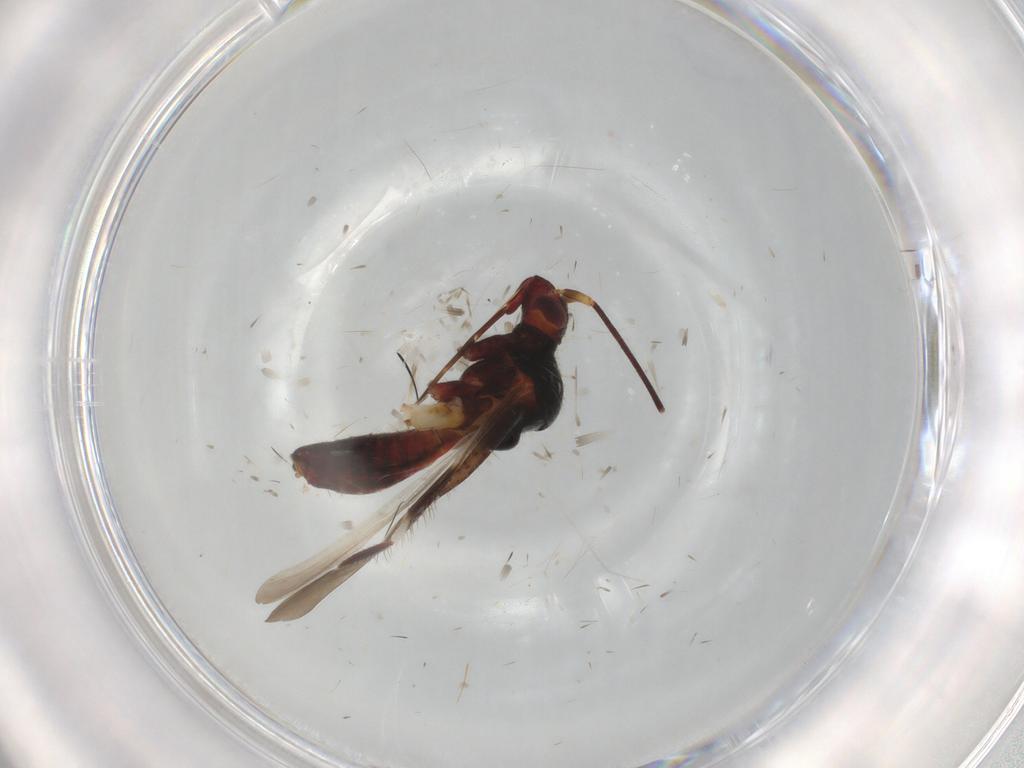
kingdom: Animalia
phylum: Arthropoda
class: Insecta
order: Hemiptera
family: Miridae
